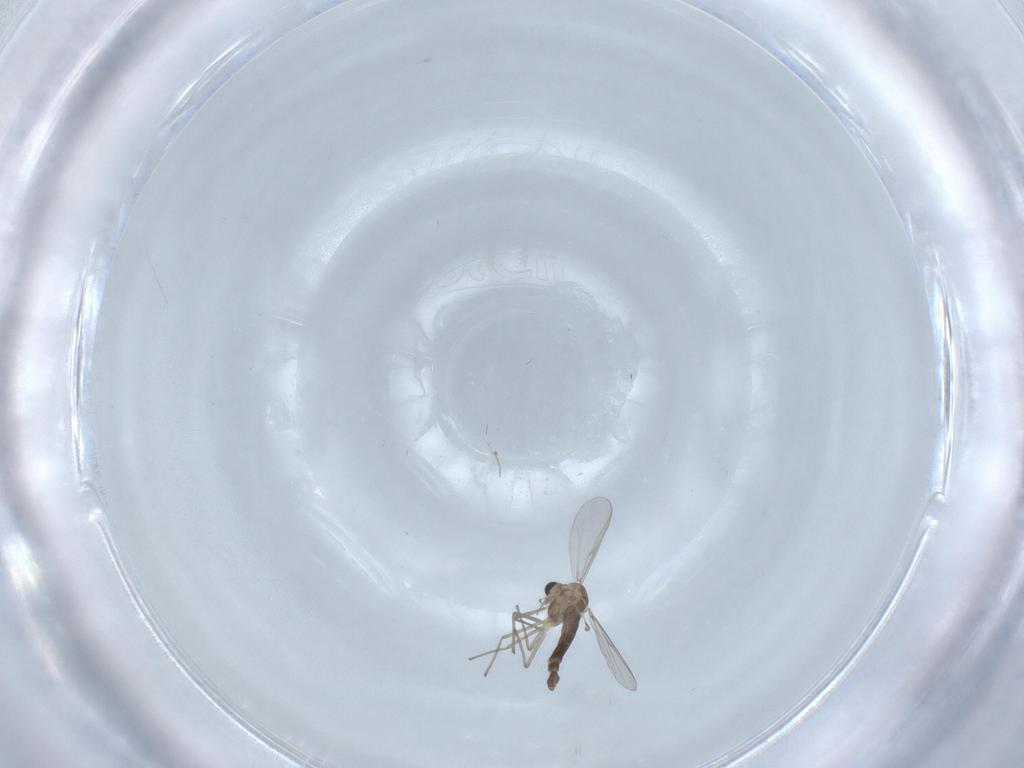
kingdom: Animalia
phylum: Arthropoda
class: Insecta
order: Diptera
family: Chironomidae
